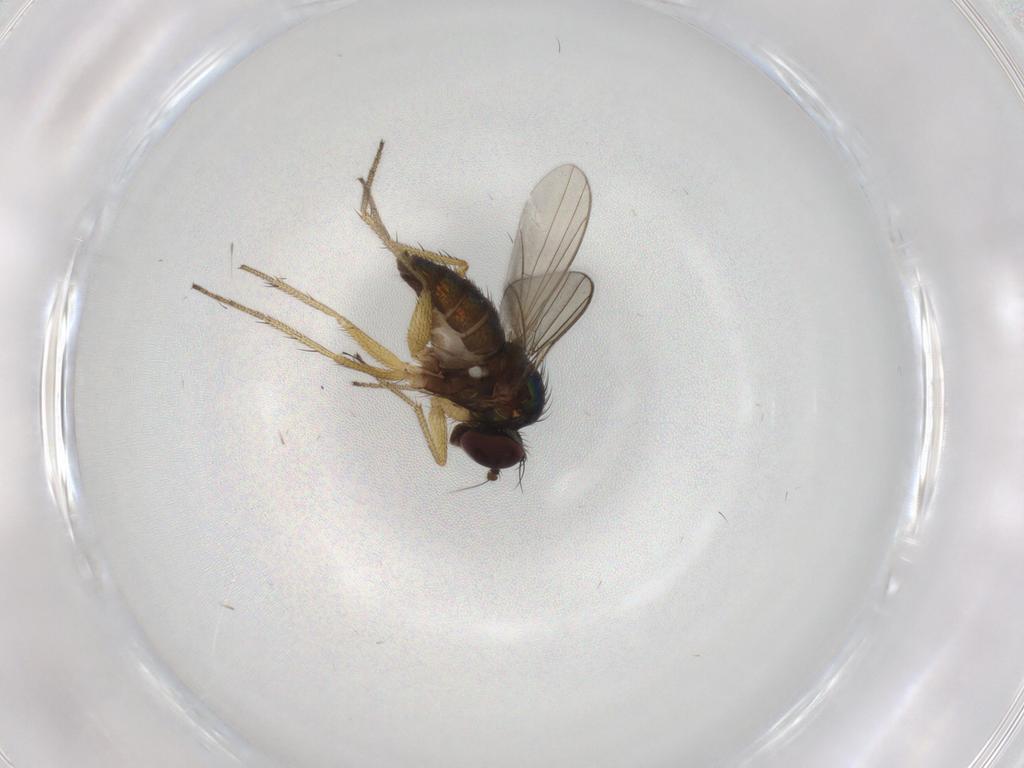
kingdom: Animalia
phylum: Arthropoda
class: Insecta
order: Diptera
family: Chironomidae
